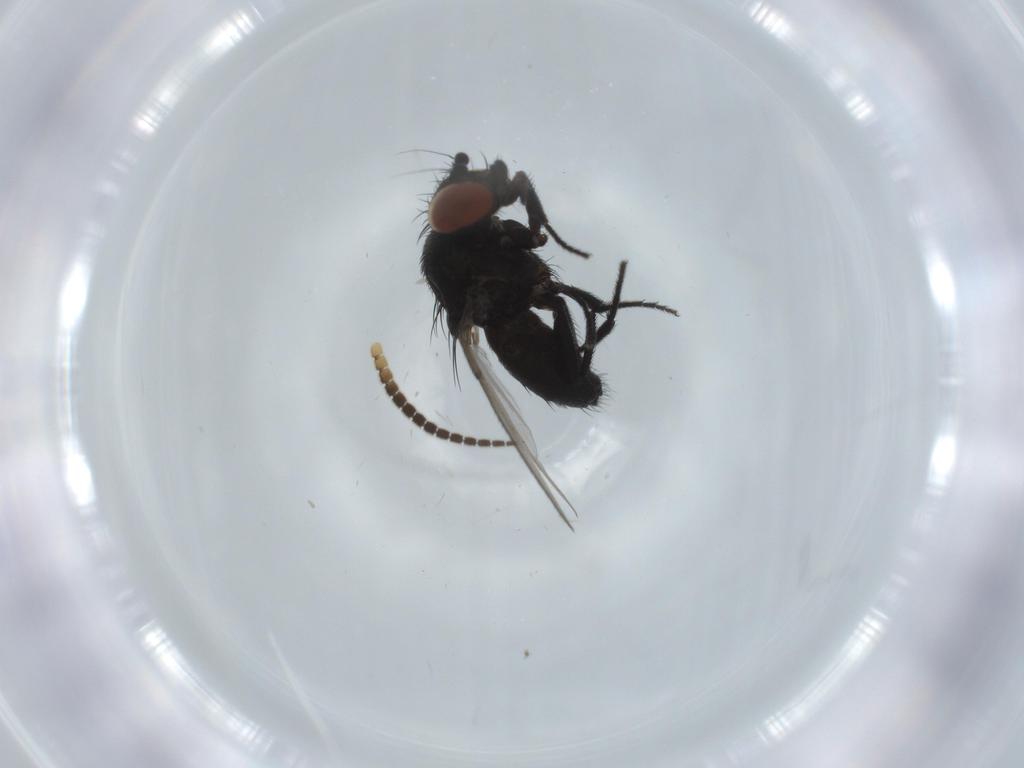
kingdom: Animalia
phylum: Arthropoda
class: Insecta
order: Diptera
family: Milichiidae
